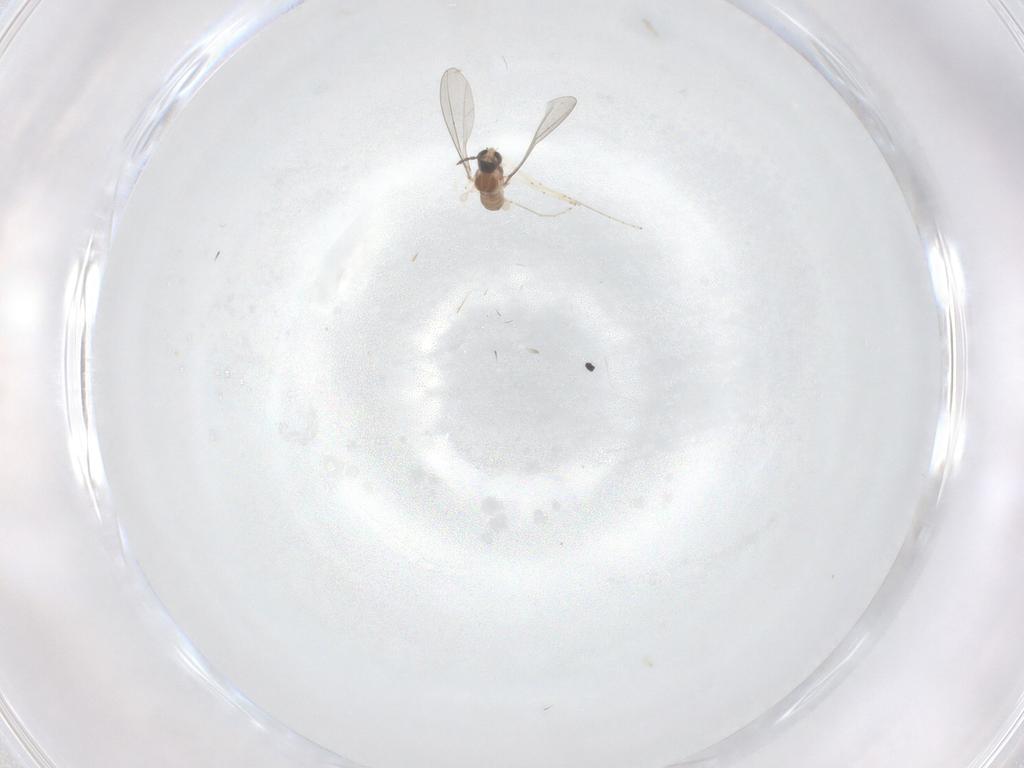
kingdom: Animalia
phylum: Arthropoda
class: Insecta
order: Diptera
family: Cecidomyiidae
